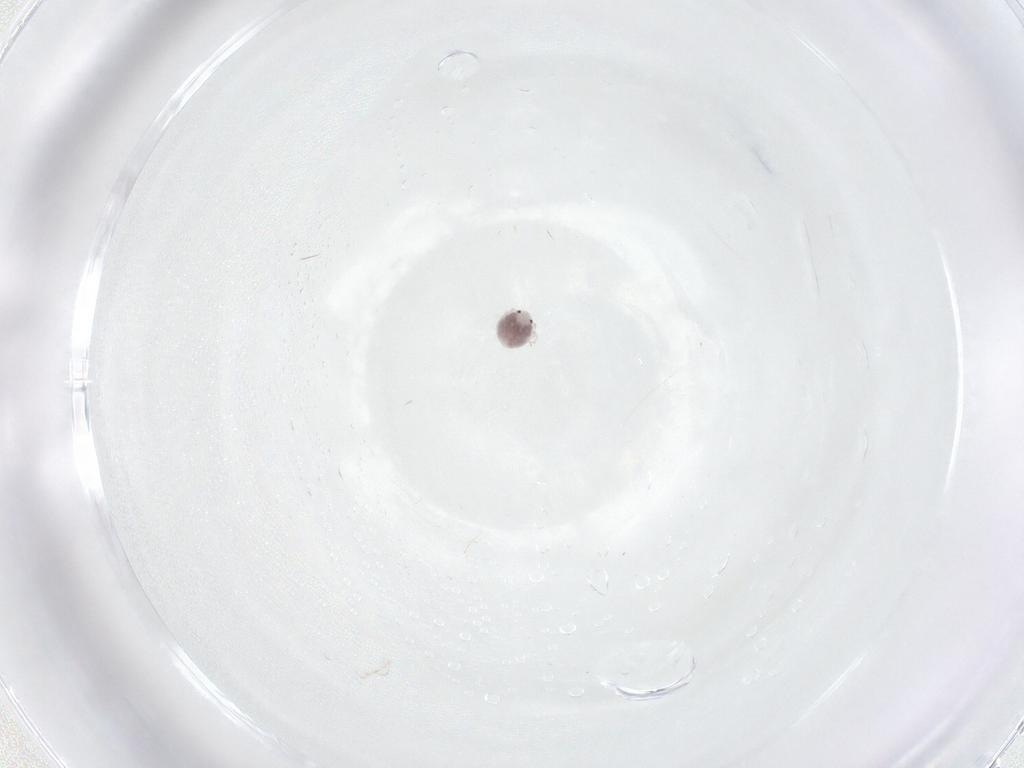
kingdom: Animalia
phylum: Arthropoda
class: Arachnida
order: Trombidiformes
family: Pionidae
